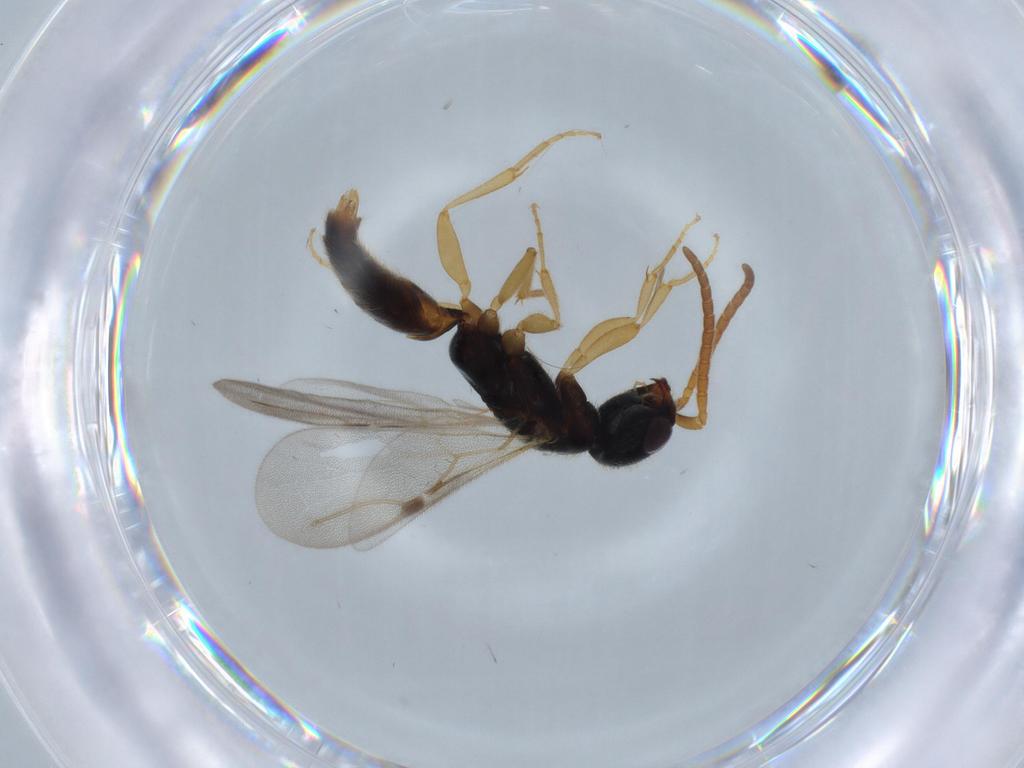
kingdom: Animalia
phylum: Arthropoda
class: Insecta
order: Hymenoptera
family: Bethylidae
